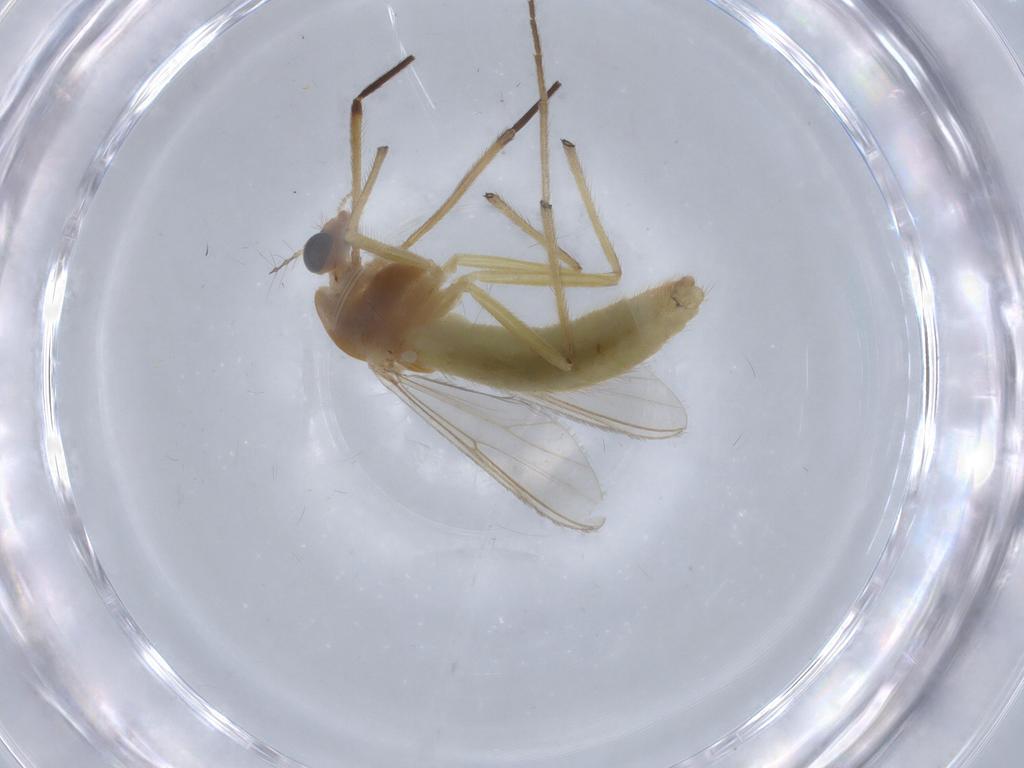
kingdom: Animalia
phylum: Arthropoda
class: Insecta
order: Diptera
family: Chironomidae
